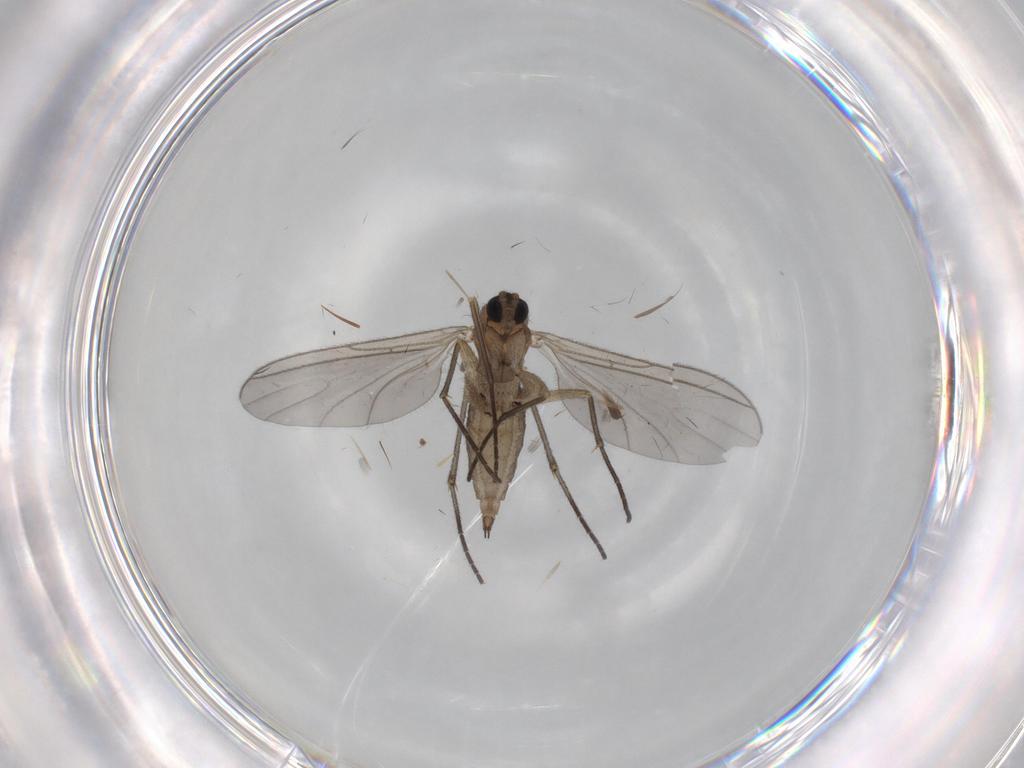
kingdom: Animalia
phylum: Arthropoda
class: Insecta
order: Diptera
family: Sciaridae
